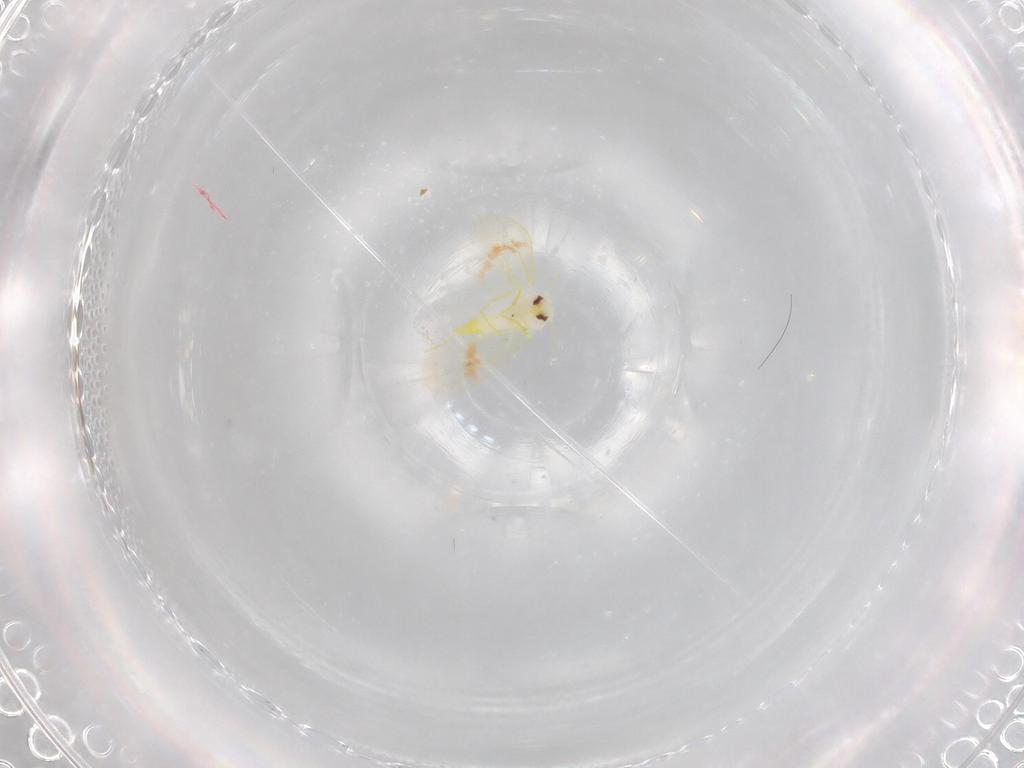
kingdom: Animalia
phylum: Arthropoda
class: Insecta
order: Hemiptera
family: Aleyrodidae
